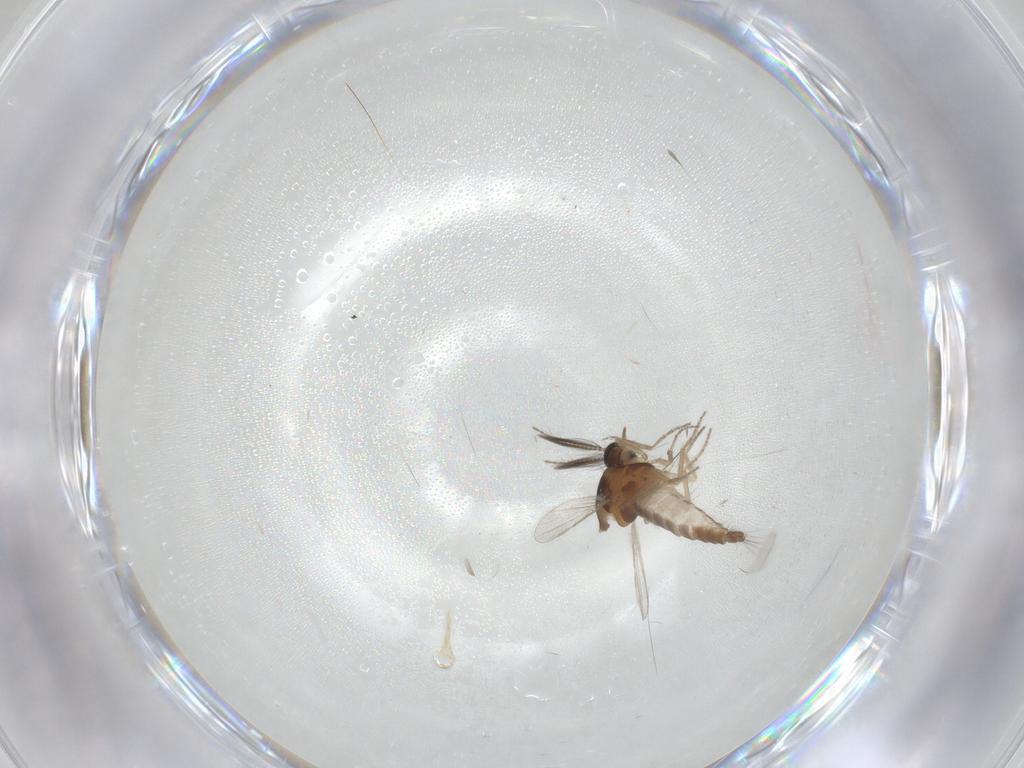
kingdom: Animalia
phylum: Arthropoda
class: Insecta
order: Diptera
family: Ceratopogonidae
